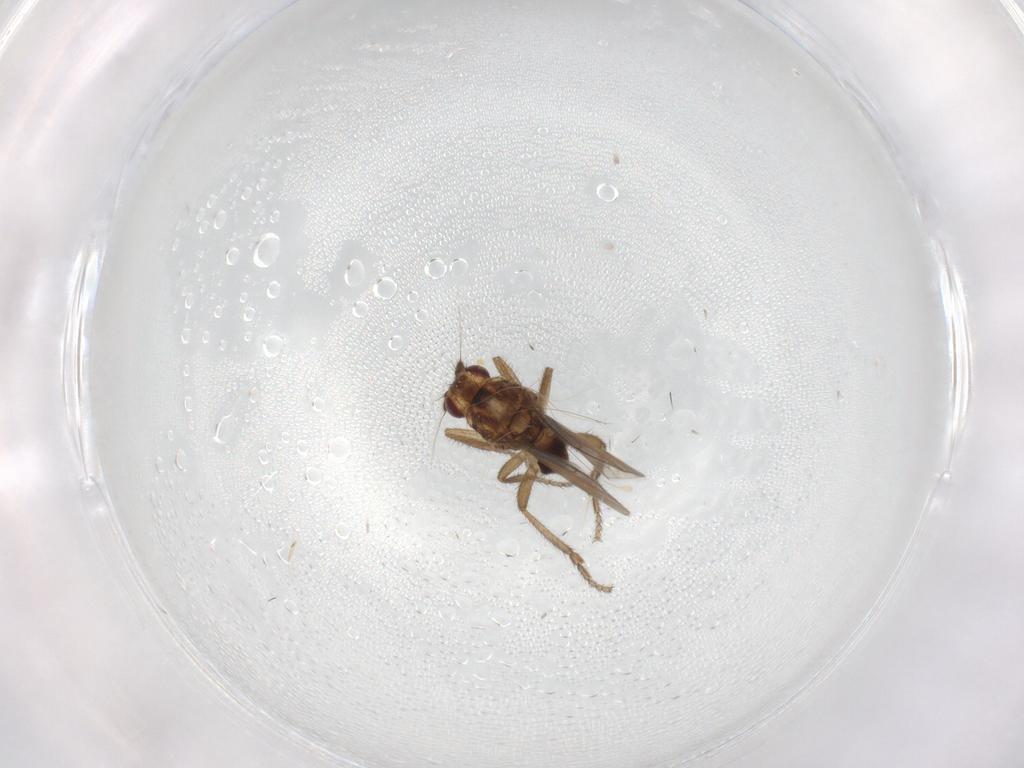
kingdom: Animalia
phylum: Arthropoda
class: Insecta
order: Diptera
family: Sphaeroceridae
